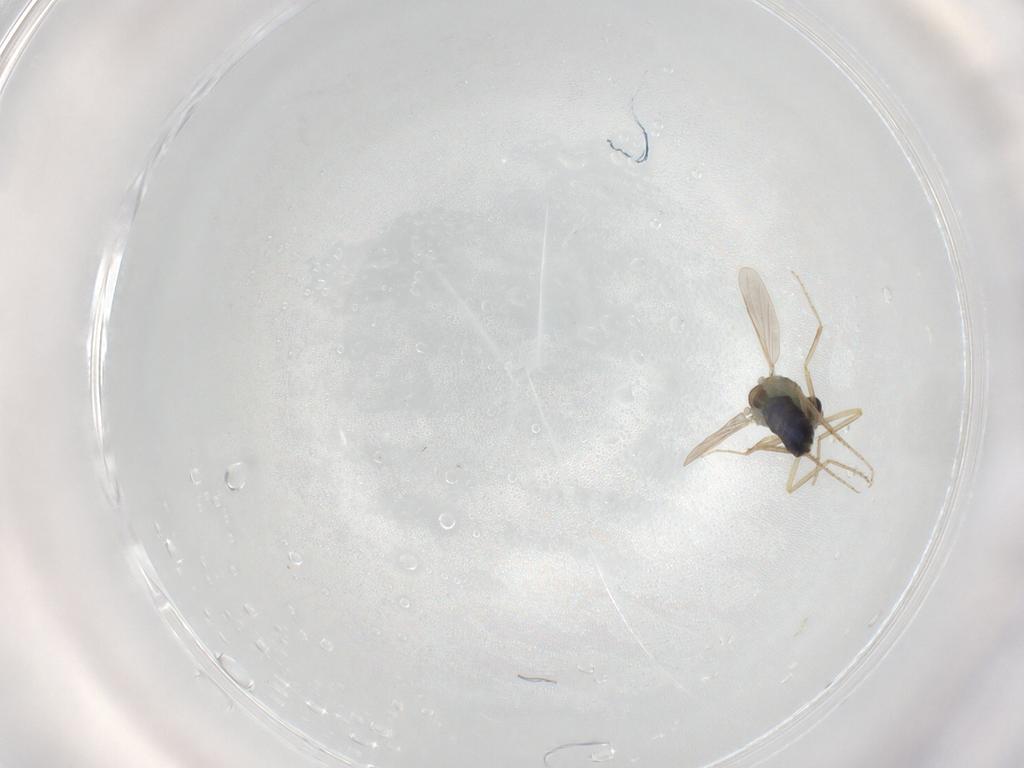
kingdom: Animalia
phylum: Arthropoda
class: Insecta
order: Diptera
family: Ceratopogonidae
